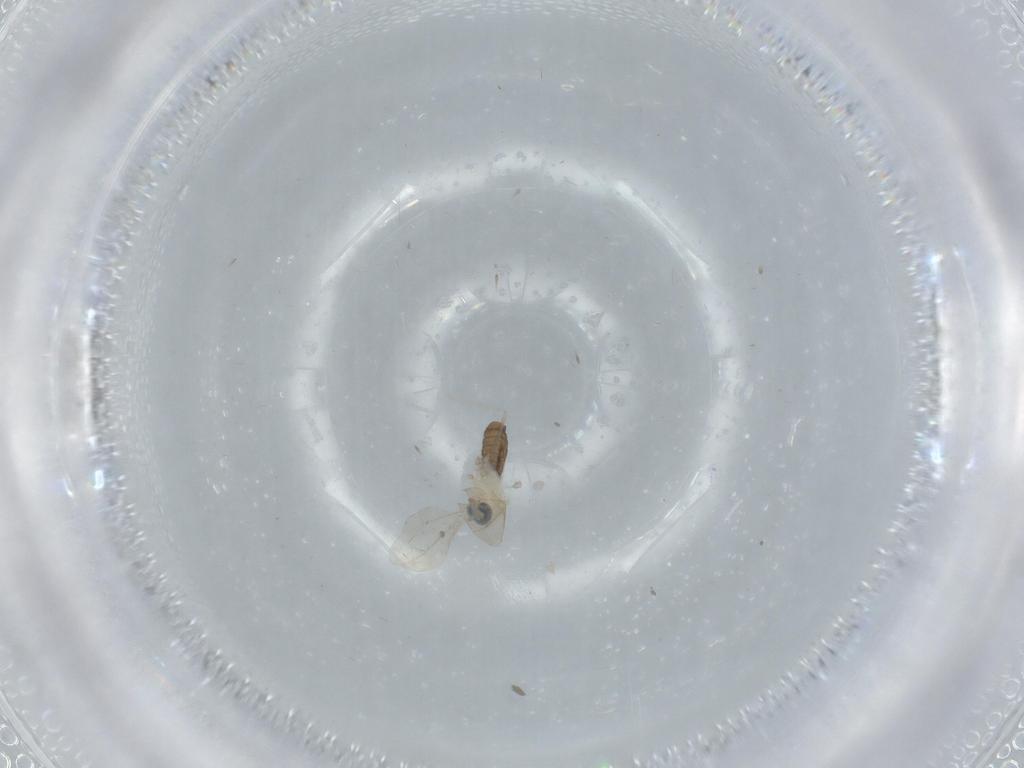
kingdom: Animalia
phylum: Arthropoda
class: Insecta
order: Diptera
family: Cecidomyiidae
